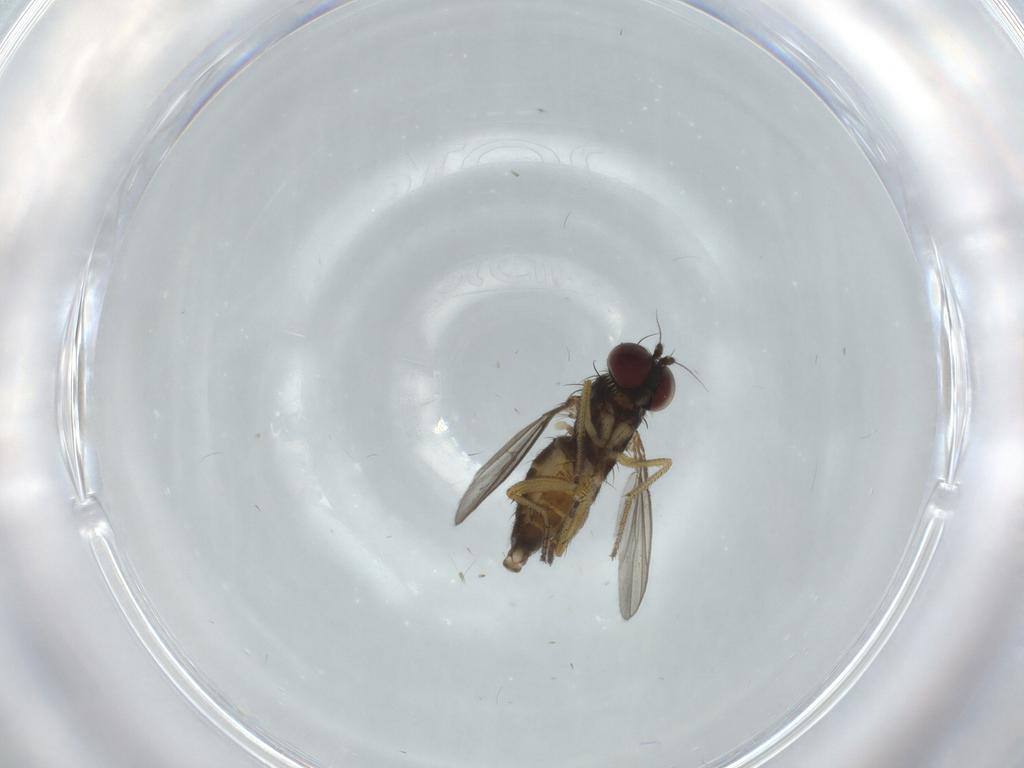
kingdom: Animalia
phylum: Arthropoda
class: Insecta
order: Diptera
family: Dolichopodidae
